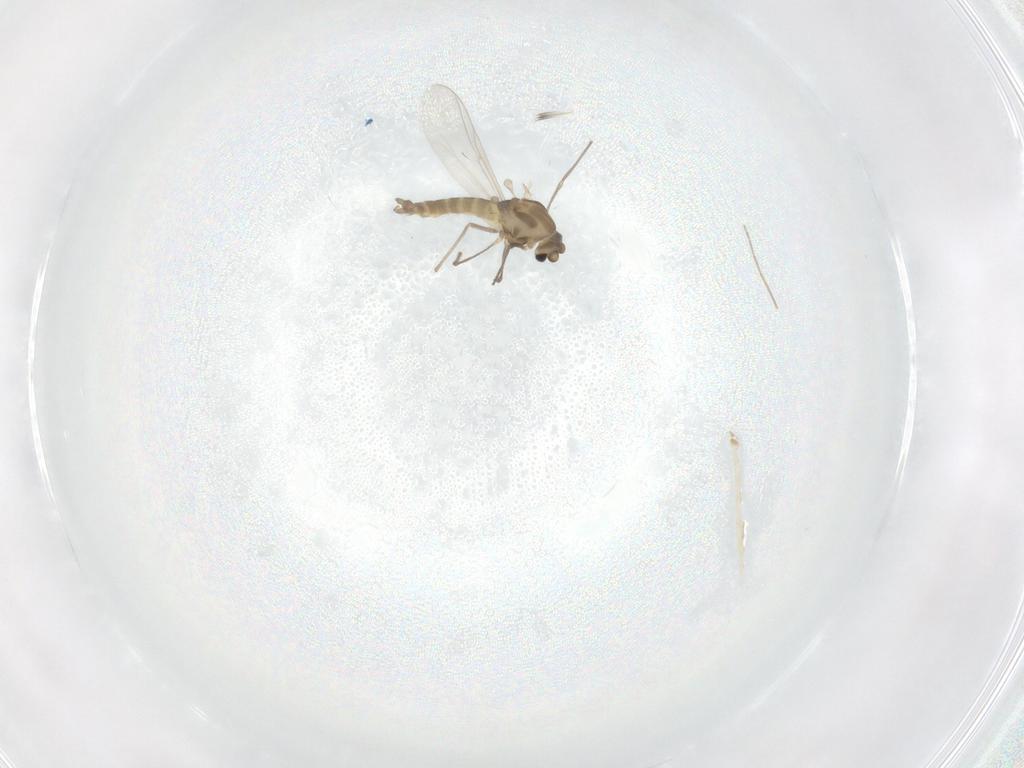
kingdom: Animalia
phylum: Arthropoda
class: Insecta
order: Diptera
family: Chironomidae
